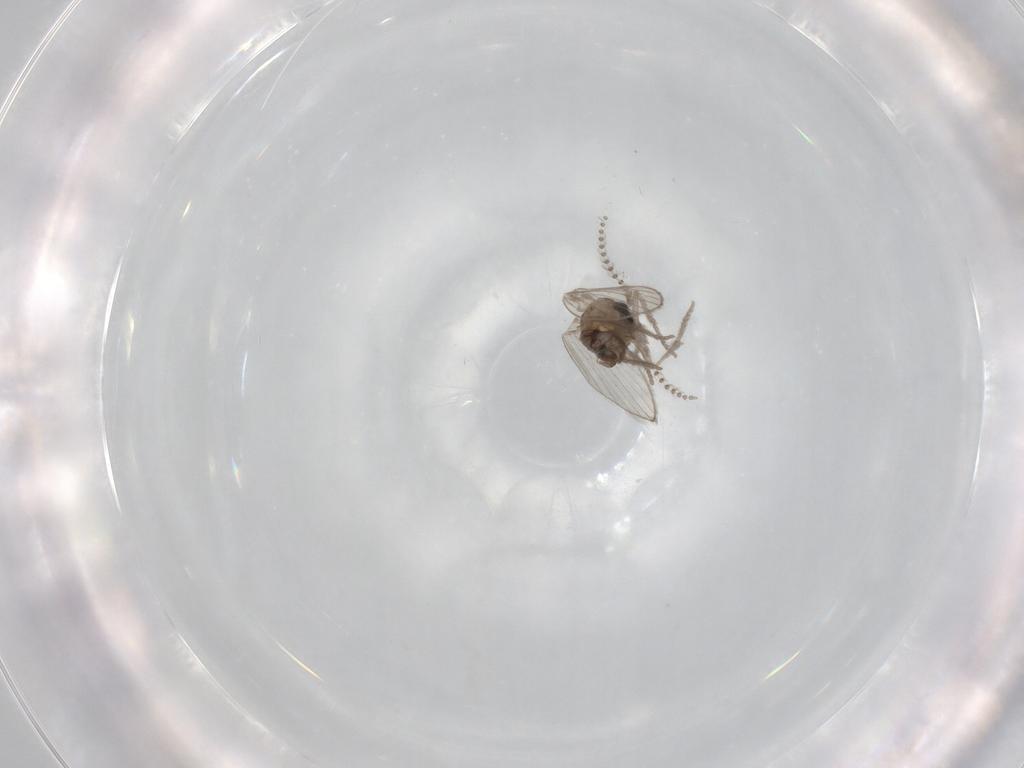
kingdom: Animalia
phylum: Arthropoda
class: Insecta
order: Diptera
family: Psychodidae
